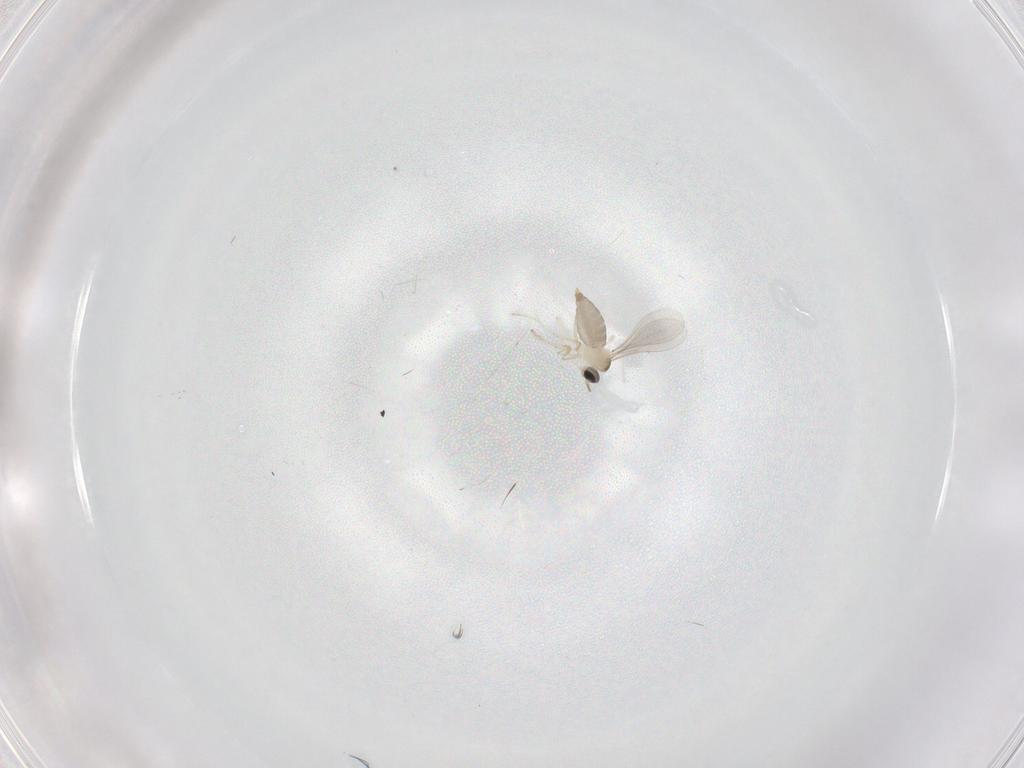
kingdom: Animalia
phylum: Arthropoda
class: Insecta
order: Diptera
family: Cecidomyiidae
